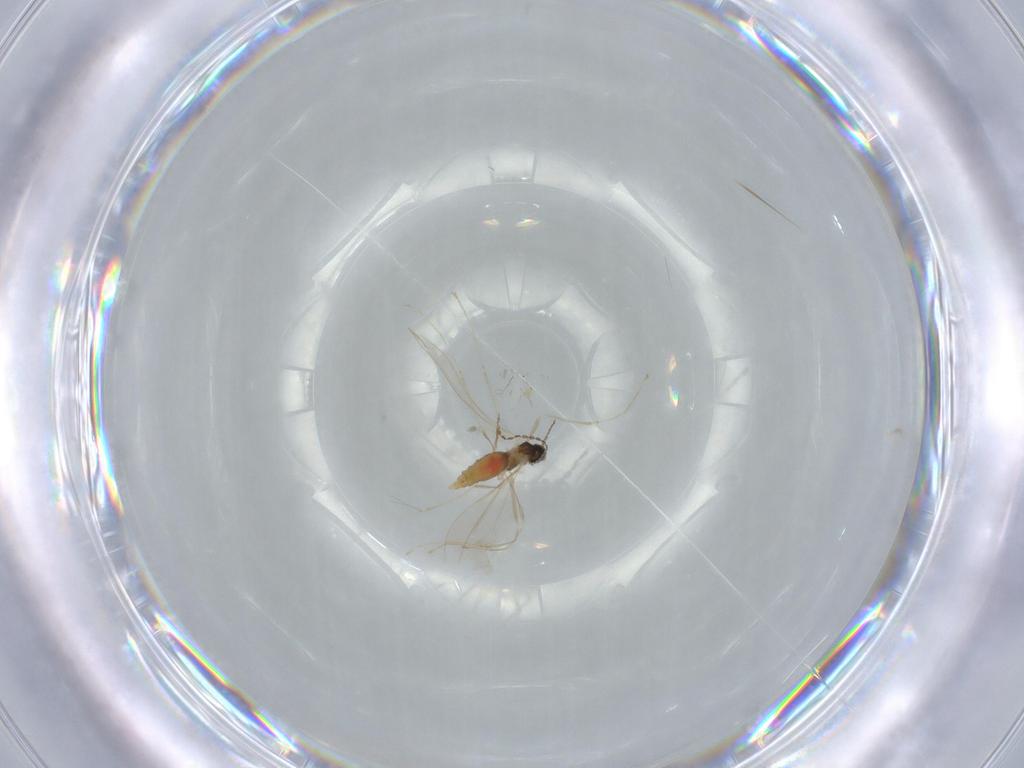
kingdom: Animalia
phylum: Arthropoda
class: Insecta
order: Diptera
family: Cecidomyiidae
